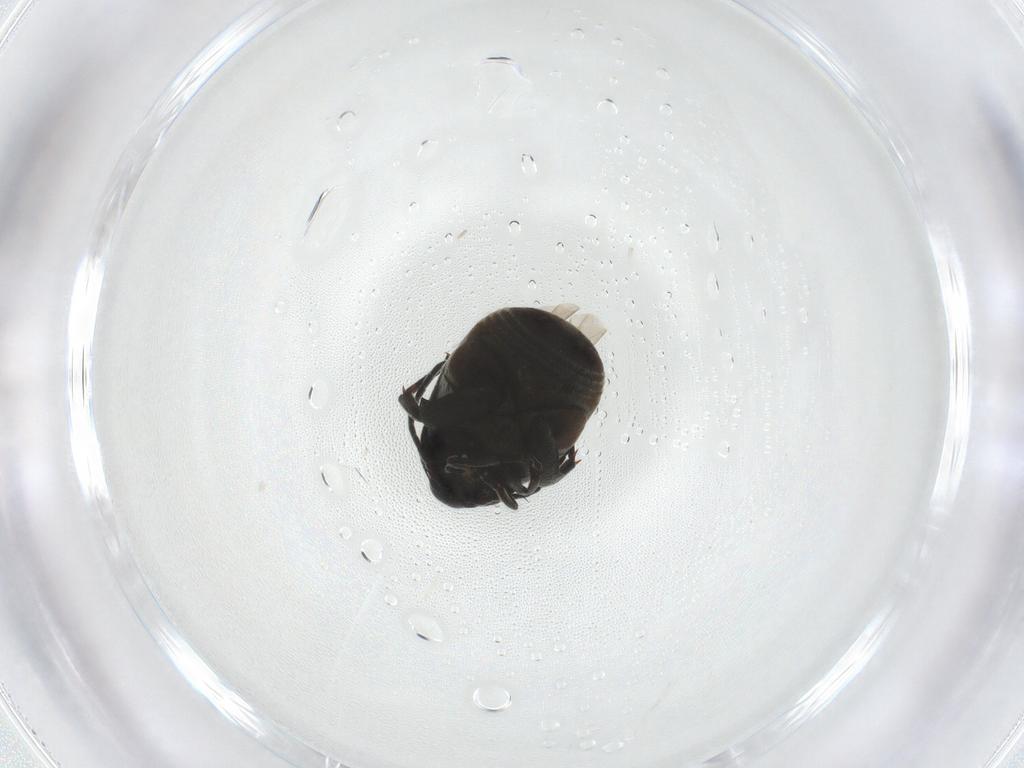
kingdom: Animalia
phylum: Arthropoda
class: Insecta
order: Coleoptera
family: Chrysomelidae
